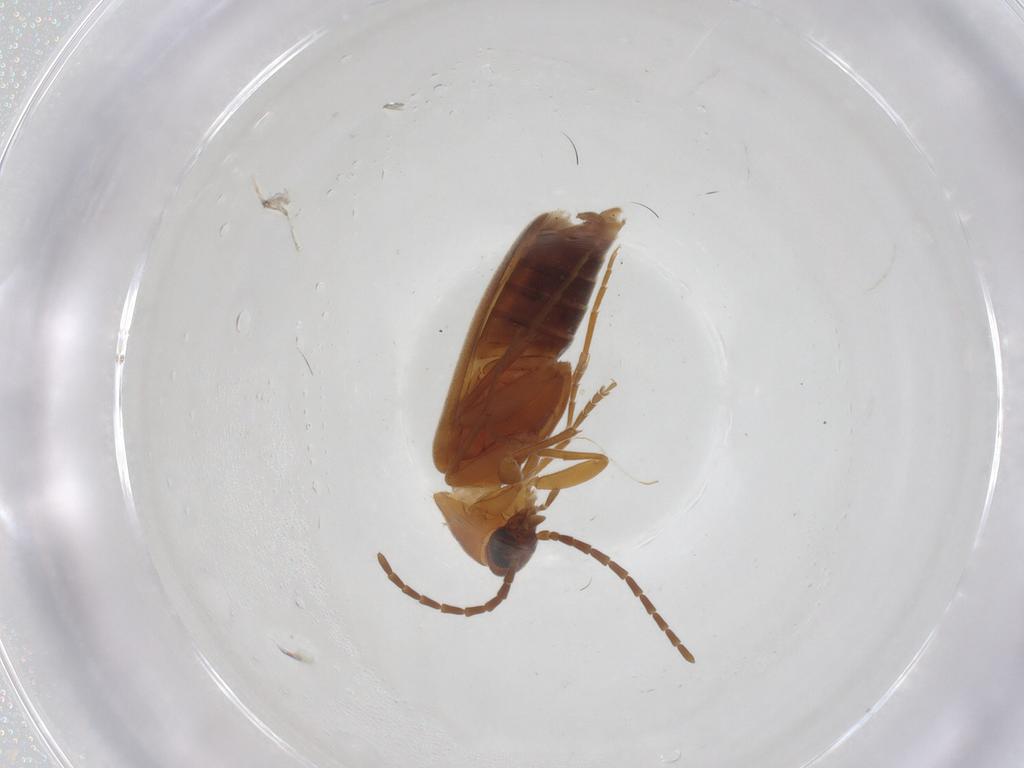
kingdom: Animalia
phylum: Arthropoda
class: Insecta
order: Coleoptera
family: Scraptiidae
